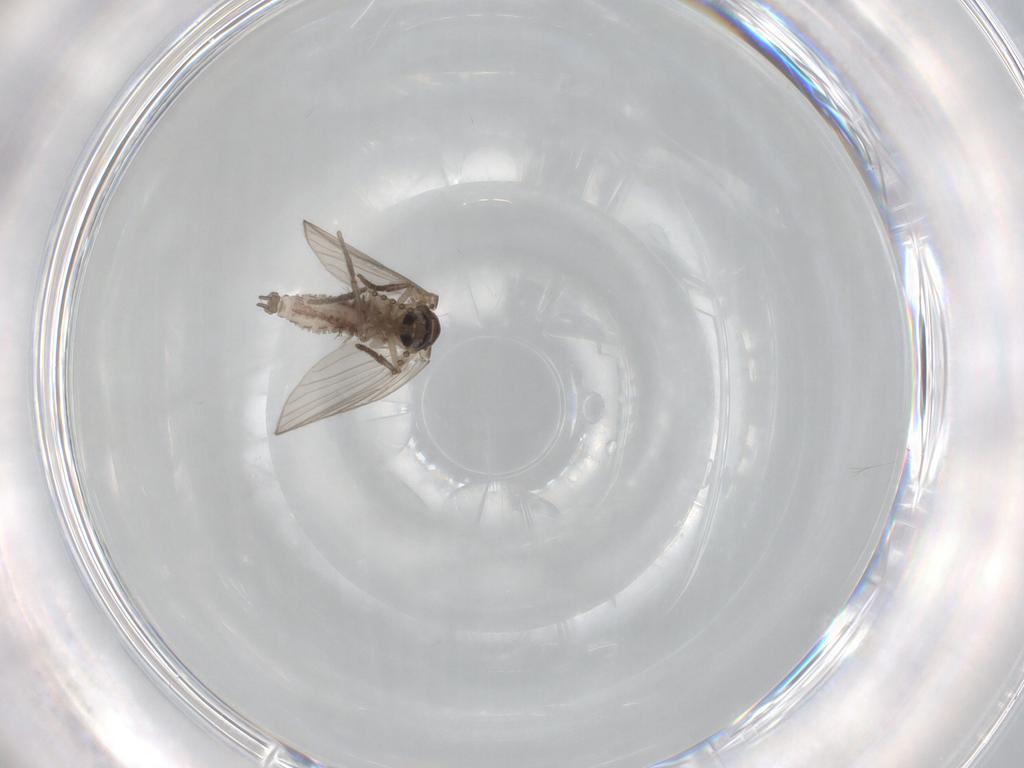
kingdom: Animalia
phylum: Arthropoda
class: Insecta
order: Diptera
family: Psychodidae
